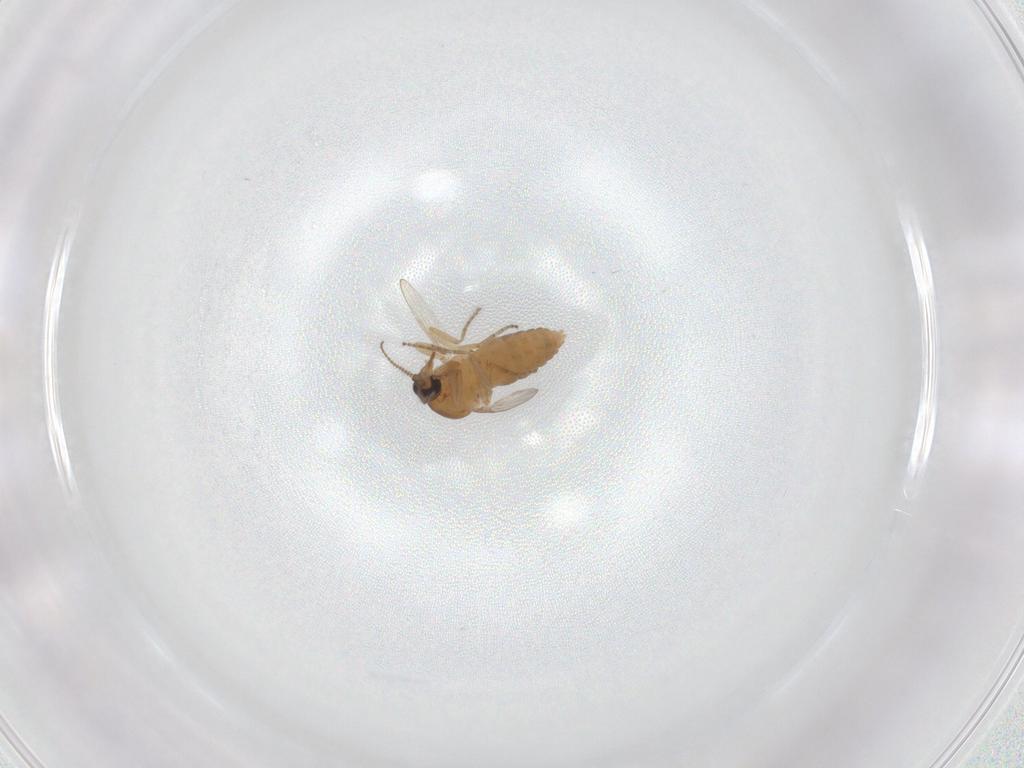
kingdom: Animalia
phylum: Arthropoda
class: Insecta
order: Diptera
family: Ceratopogonidae
